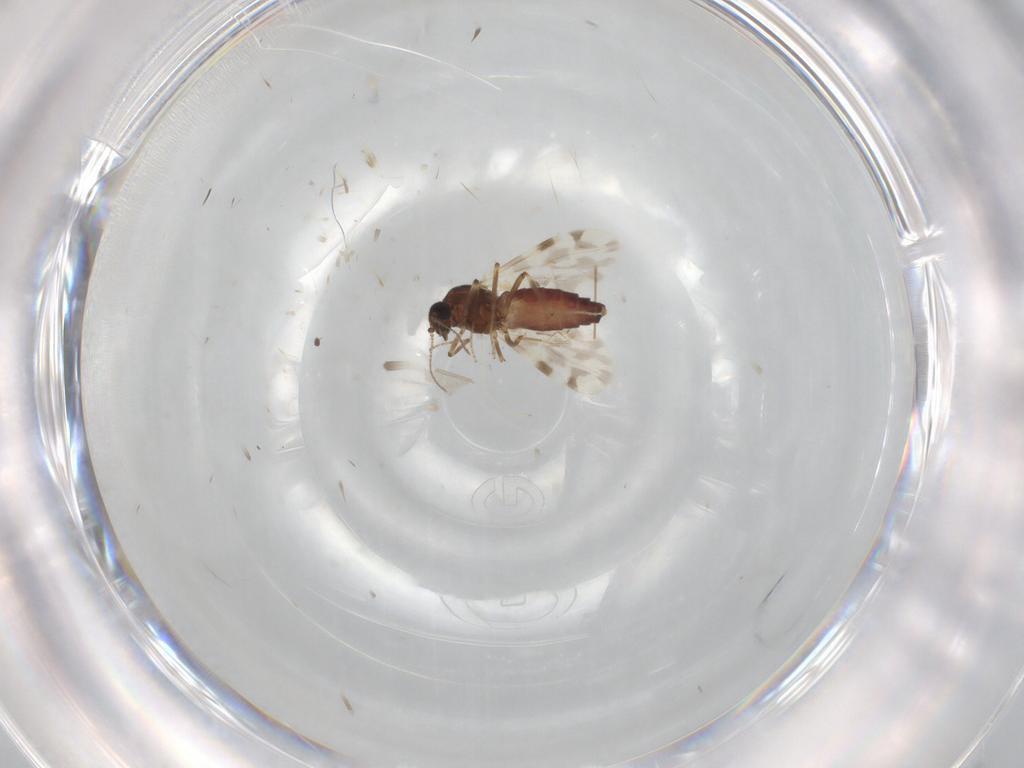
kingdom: Animalia
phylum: Arthropoda
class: Insecta
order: Diptera
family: Cecidomyiidae
